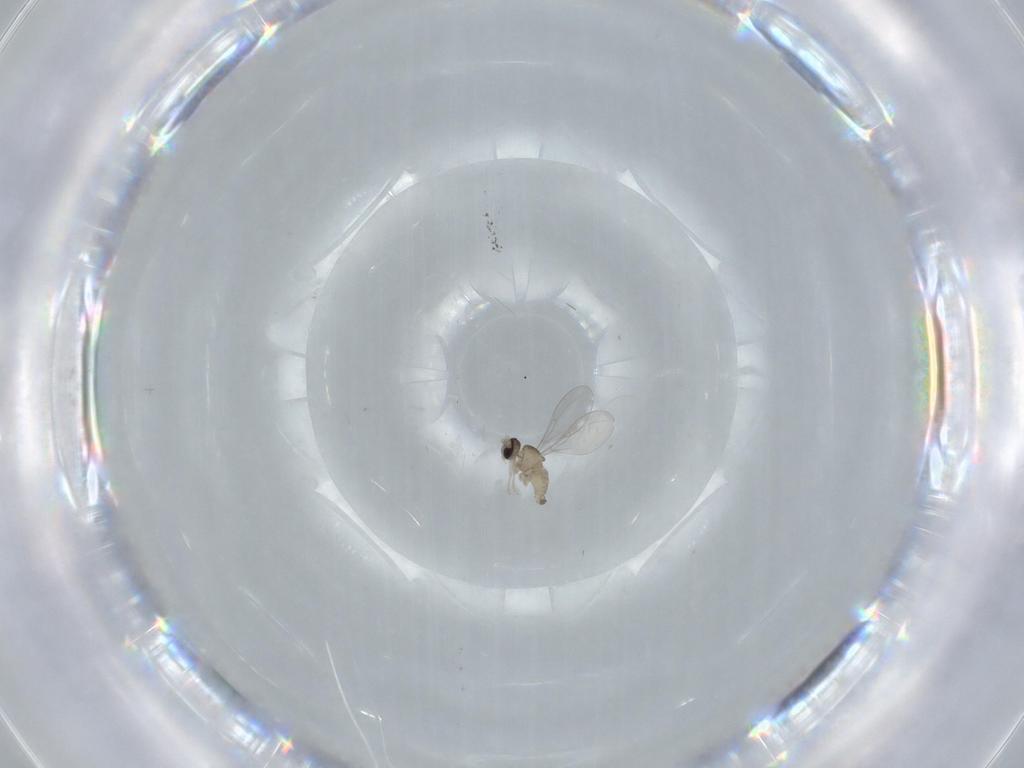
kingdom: Animalia
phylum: Arthropoda
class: Insecta
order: Diptera
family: Cecidomyiidae
